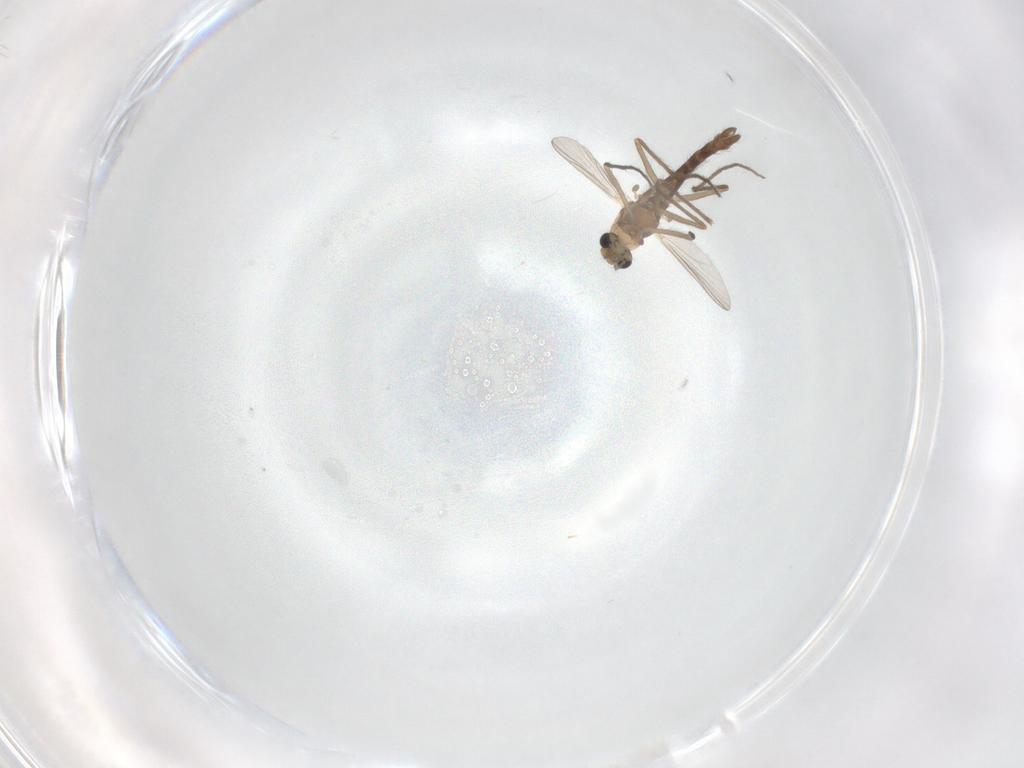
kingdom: Animalia
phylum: Arthropoda
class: Insecta
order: Diptera
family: Chironomidae
